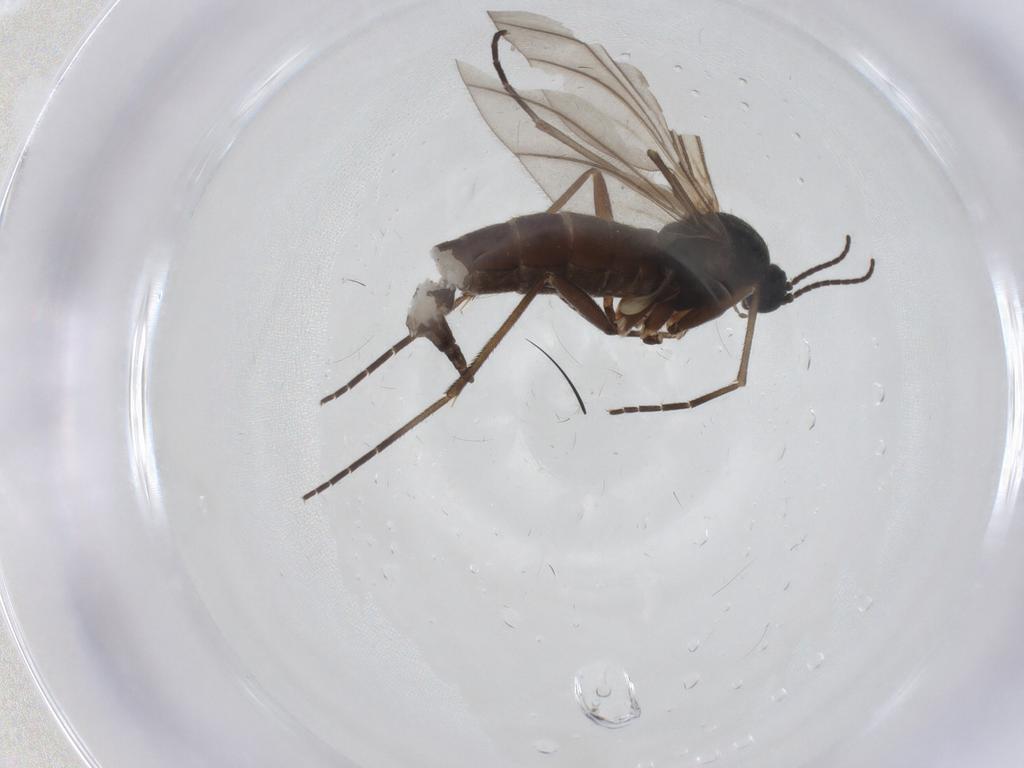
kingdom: Animalia
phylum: Arthropoda
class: Insecta
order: Diptera
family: Sciaridae
